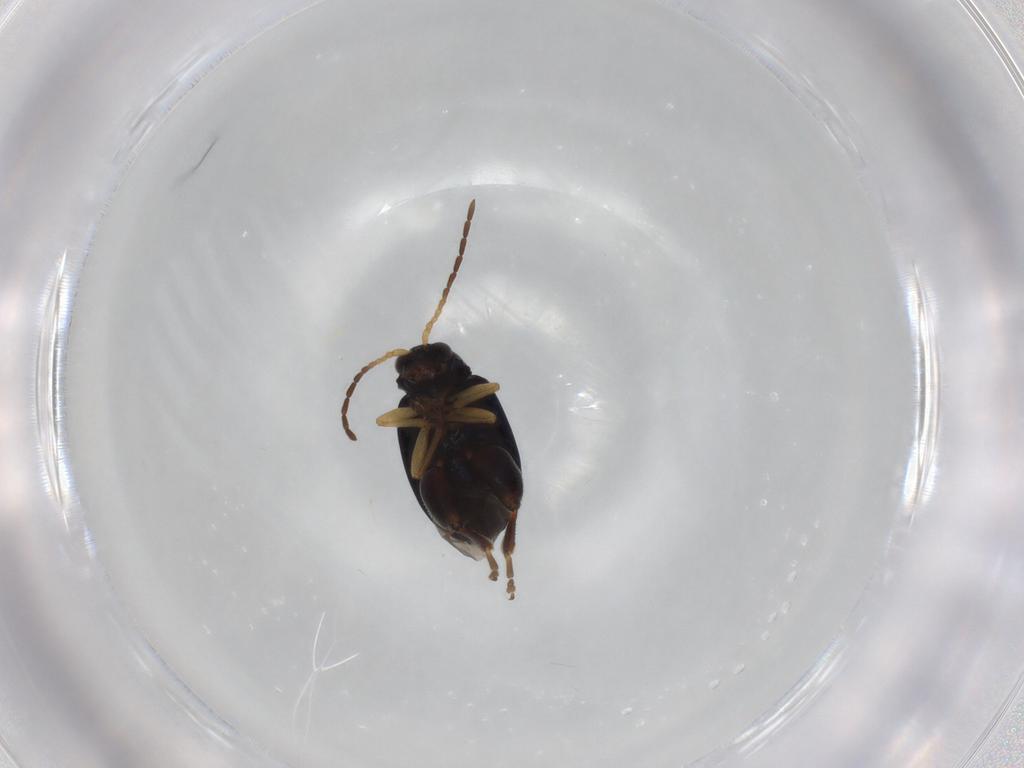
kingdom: Animalia
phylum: Arthropoda
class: Insecta
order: Coleoptera
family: Chrysomelidae
